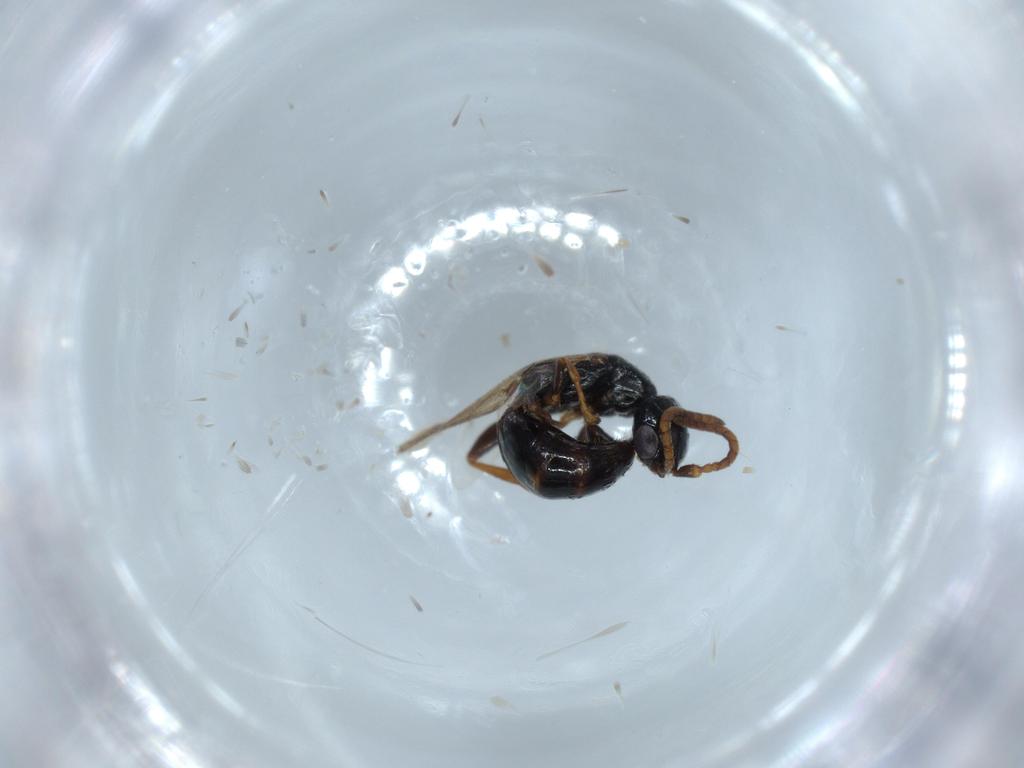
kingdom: Animalia
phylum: Arthropoda
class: Insecta
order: Hymenoptera
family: Bethylidae
